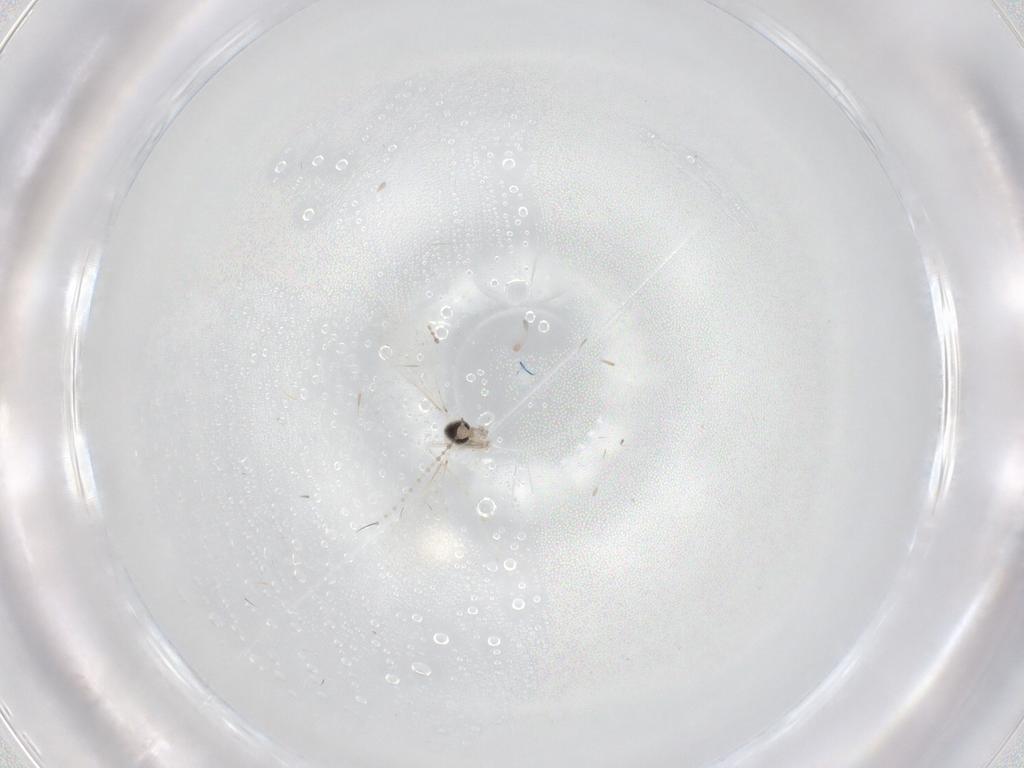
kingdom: Animalia
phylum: Arthropoda
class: Insecta
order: Diptera
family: Cecidomyiidae
